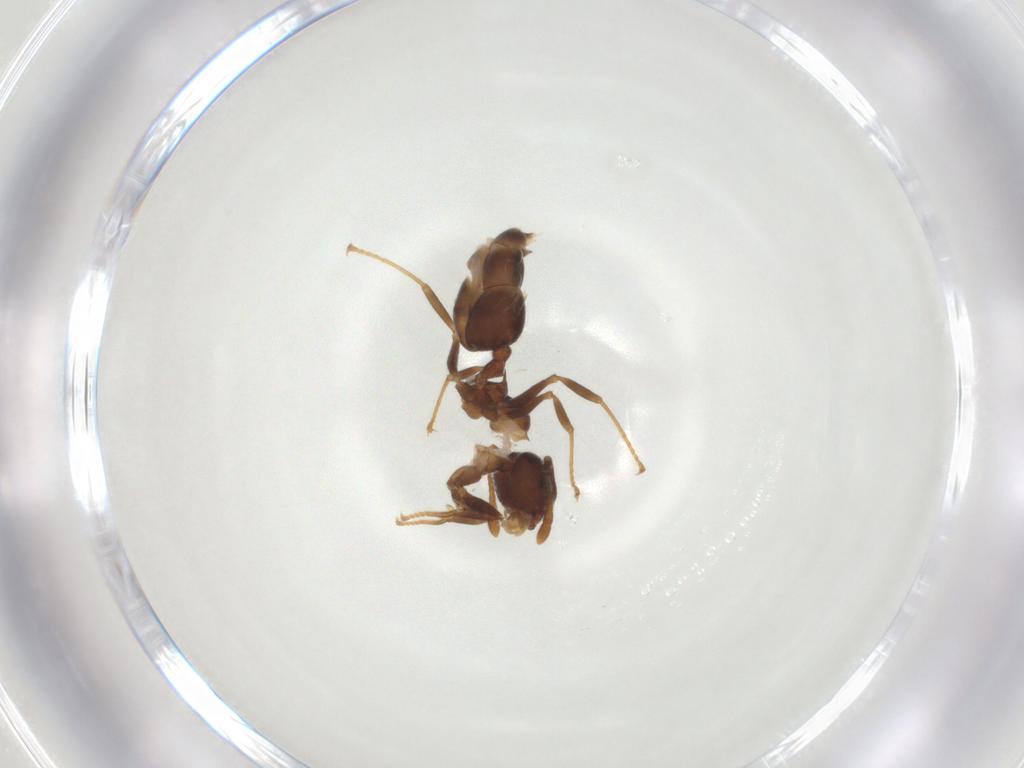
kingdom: Animalia
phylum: Arthropoda
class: Insecta
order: Hymenoptera
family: Formicidae
